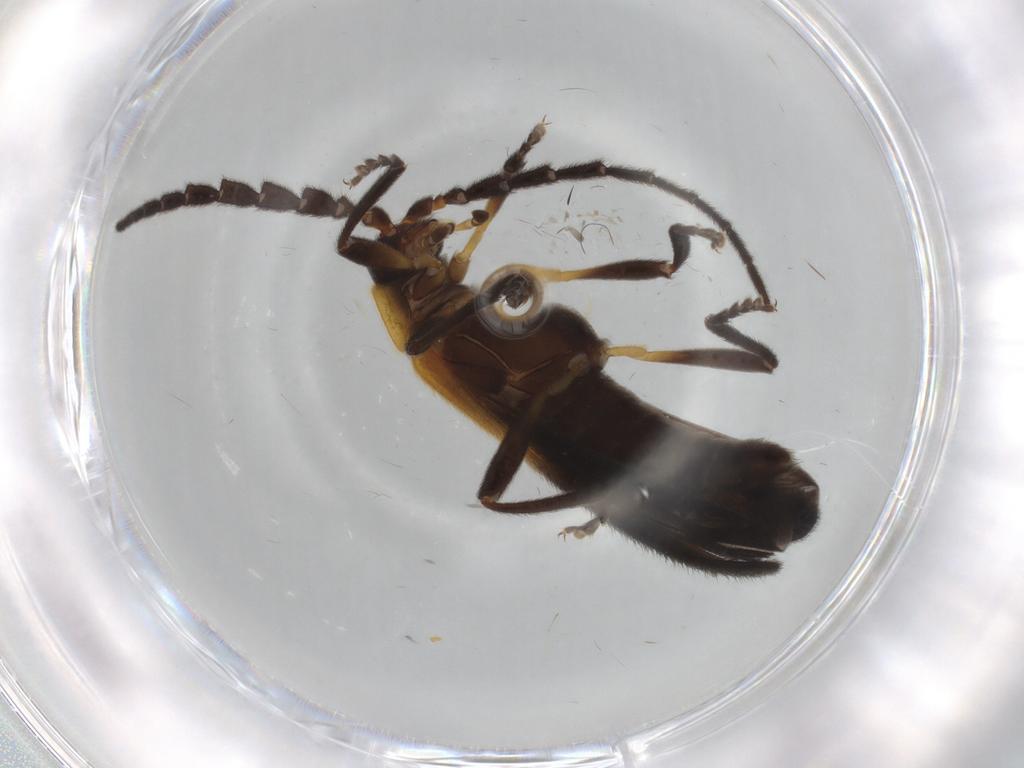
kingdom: Animalia
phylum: Arthropoda
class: Insecta
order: Coleoptera
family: Lycidae
